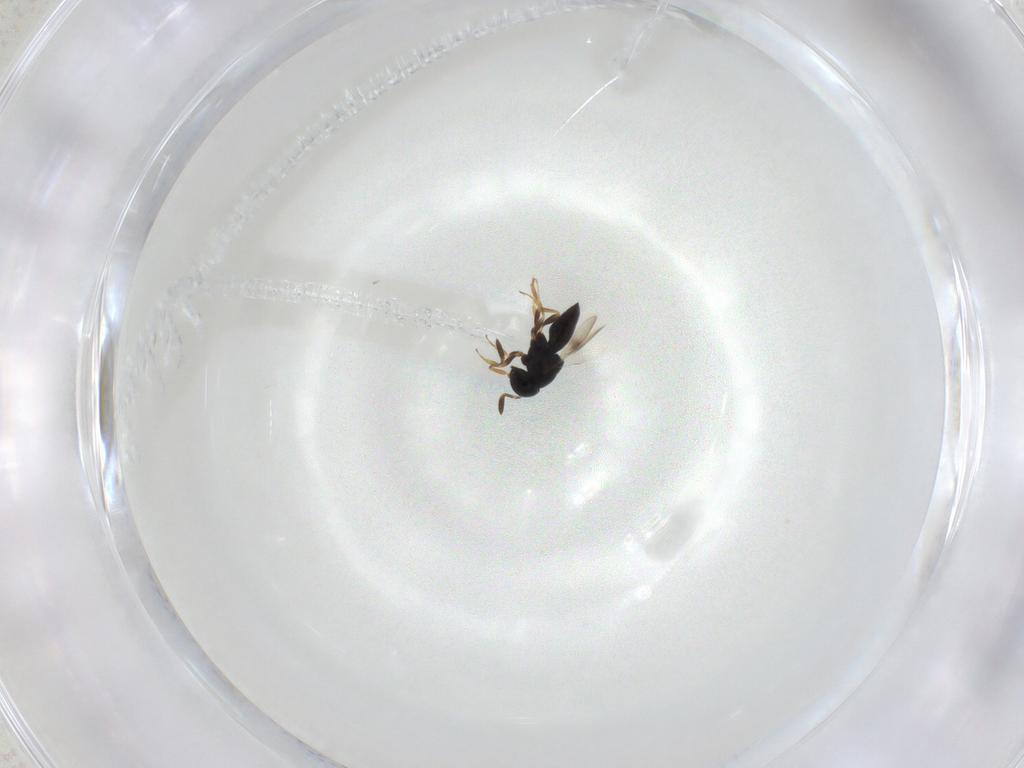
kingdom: Animalia
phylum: Arthropoda
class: Insecta
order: Hymenoptera
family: Scelionidae
